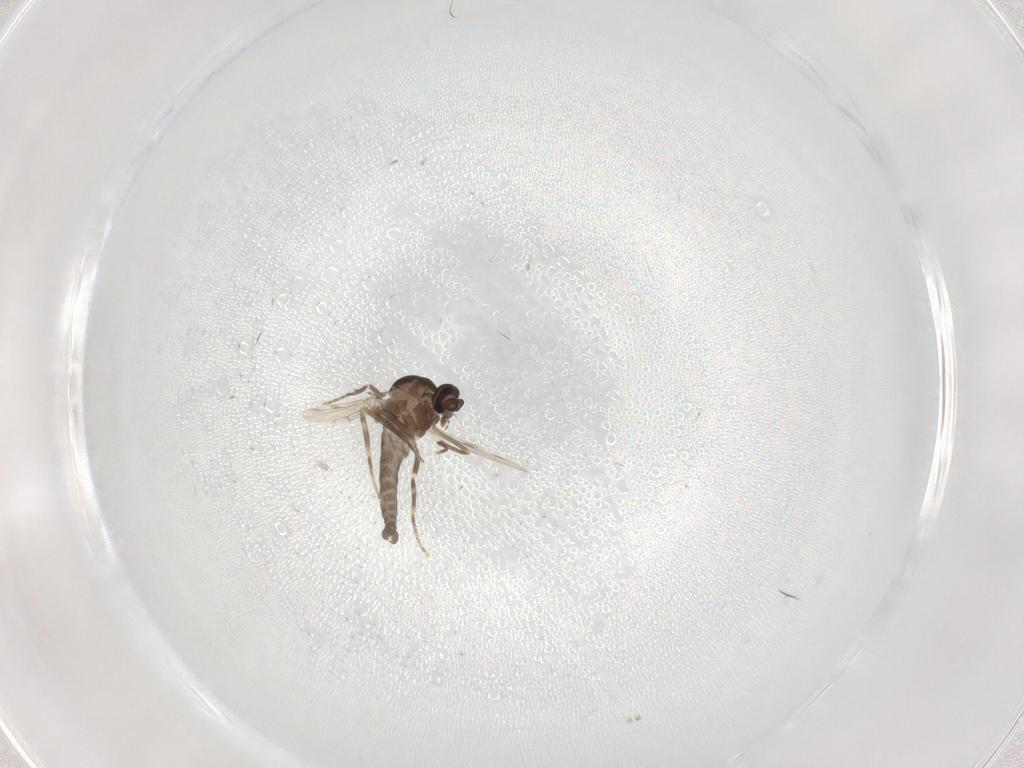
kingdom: Animalia
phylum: Arthropoda
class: Insecta
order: Diptera
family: Ceratopogonidae
